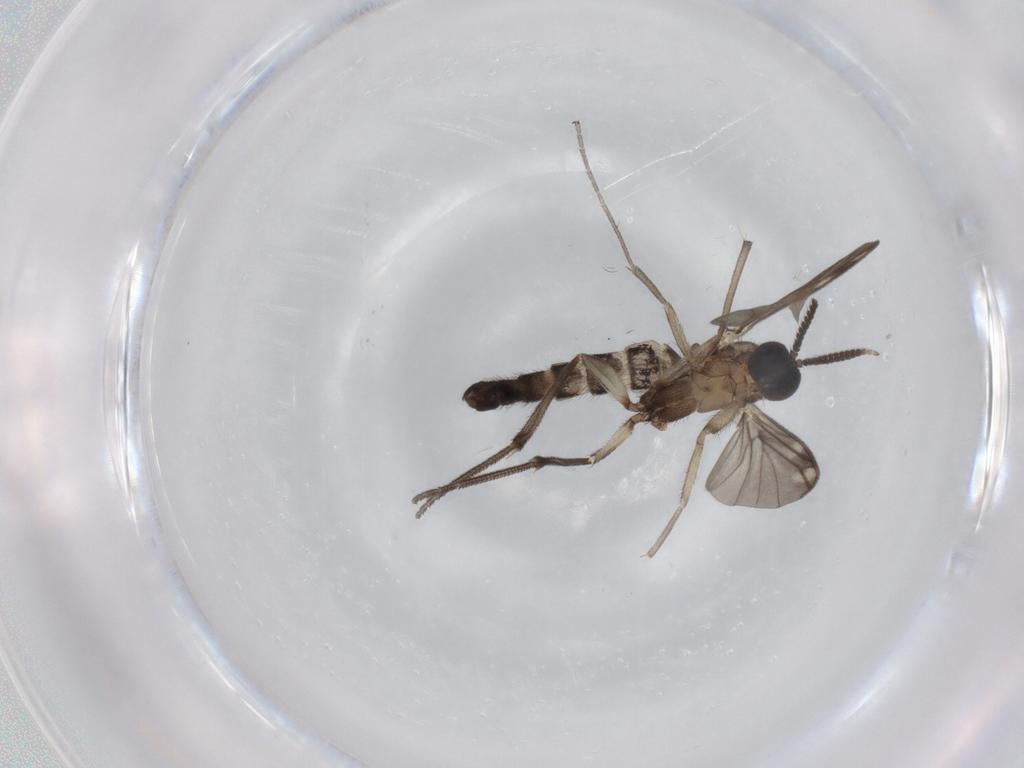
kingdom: Animalia
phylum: Arthropoda
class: Insecta
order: Diptera
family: Keroplatidae
